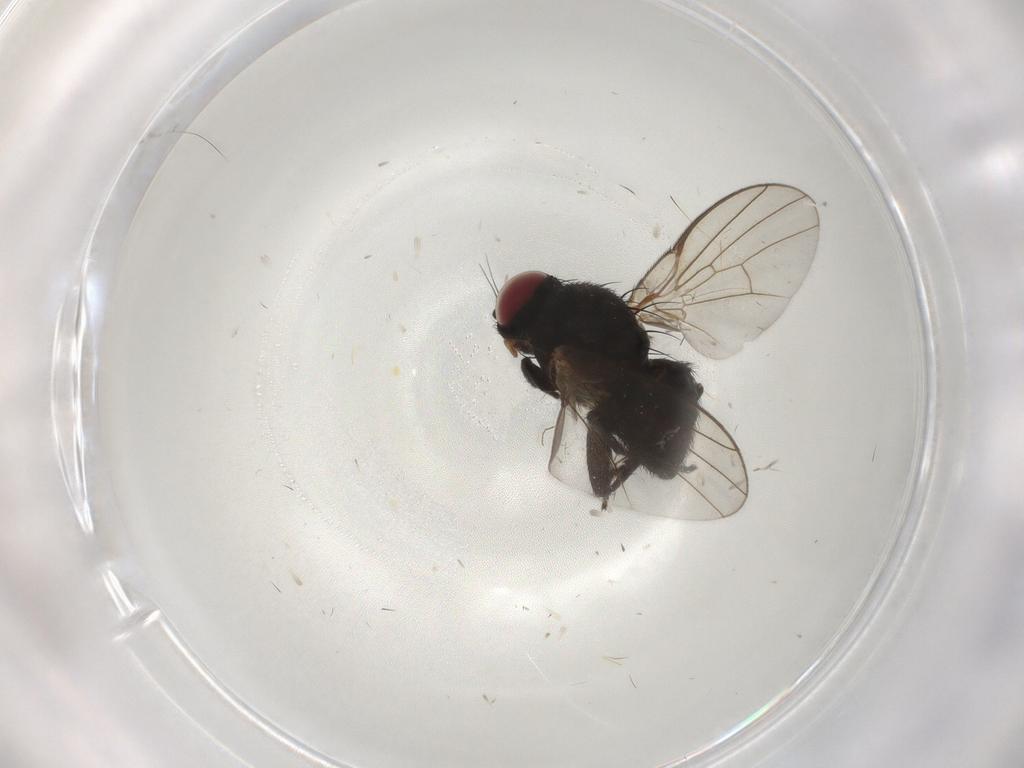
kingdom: Animalia
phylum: Arthropoda
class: Insecta
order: Diptera
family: Agromyzidae
